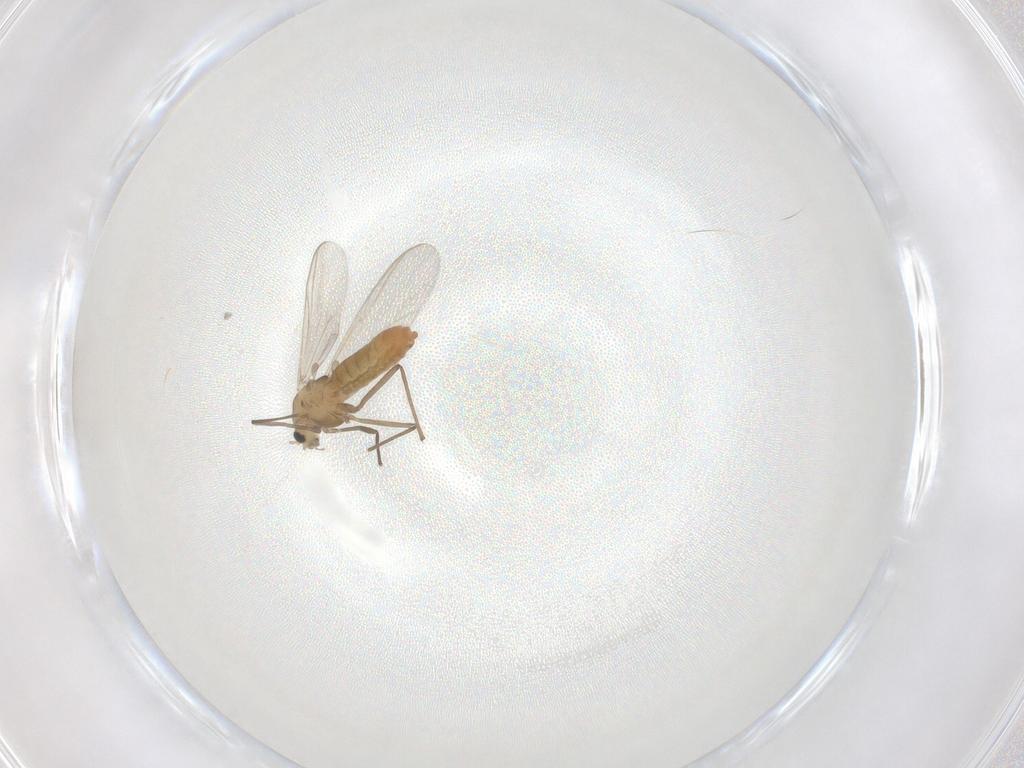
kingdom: Animalia
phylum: Arthropoda
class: Insecta
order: Diptera
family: Chironomidae
